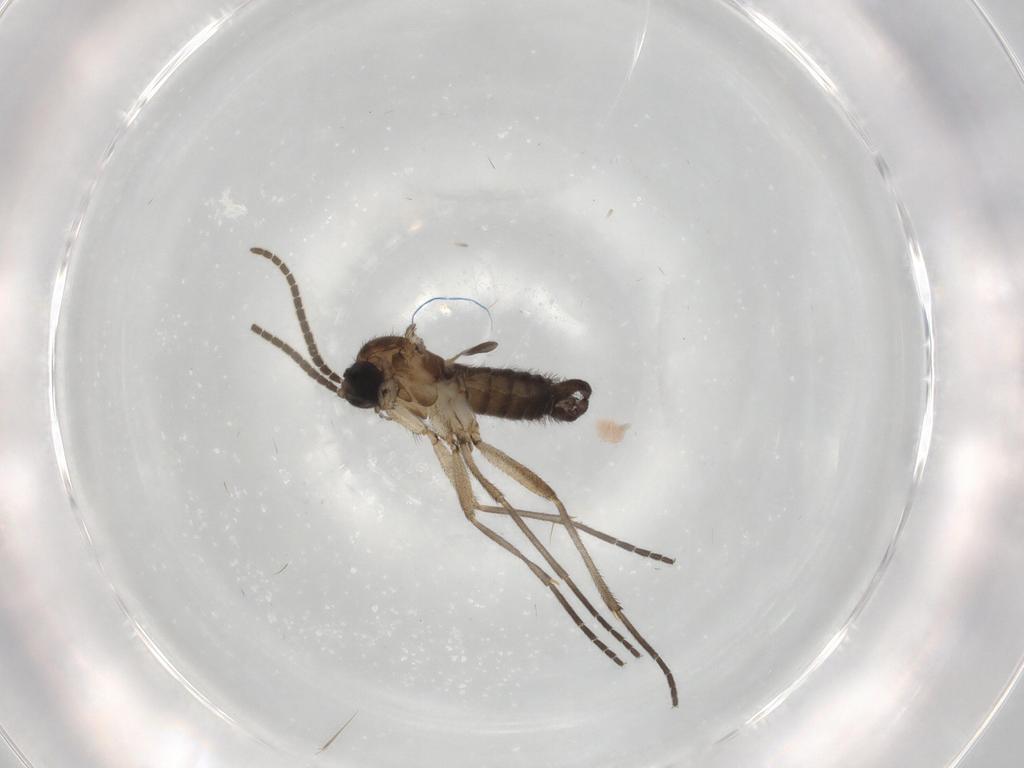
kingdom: Animalia
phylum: Arthropoda
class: Insecta
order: Diptera
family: Sciaridae
